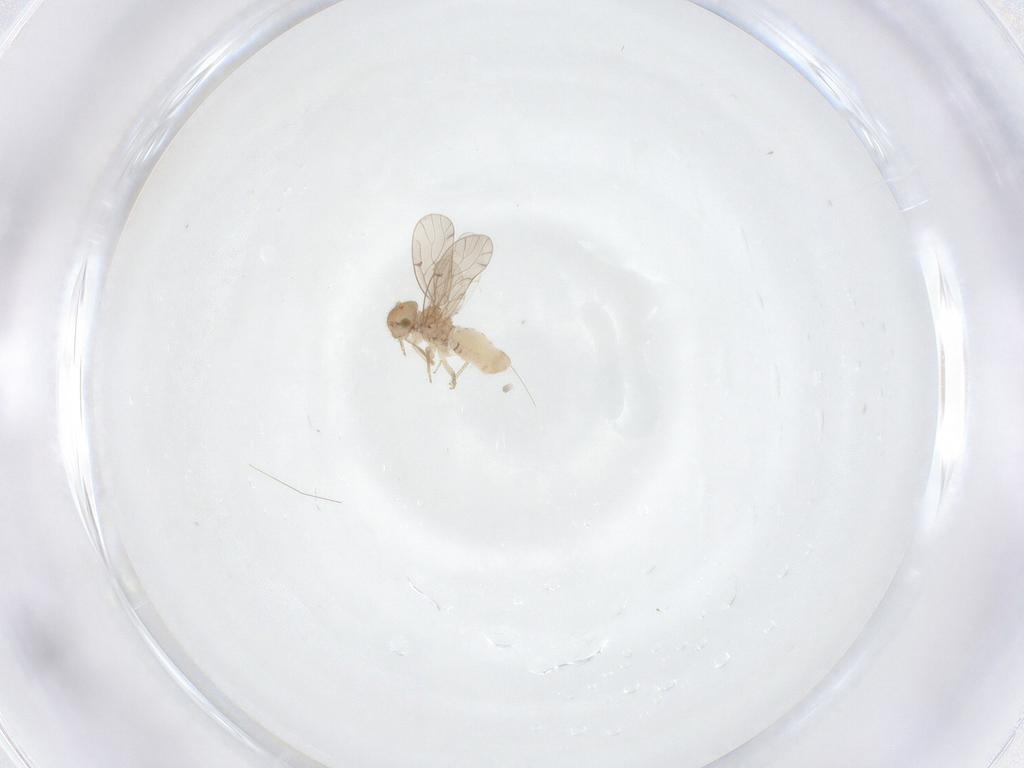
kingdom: Animalia
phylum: Arthropoda
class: Insecta
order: Psocodea
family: Ectopsocidae
